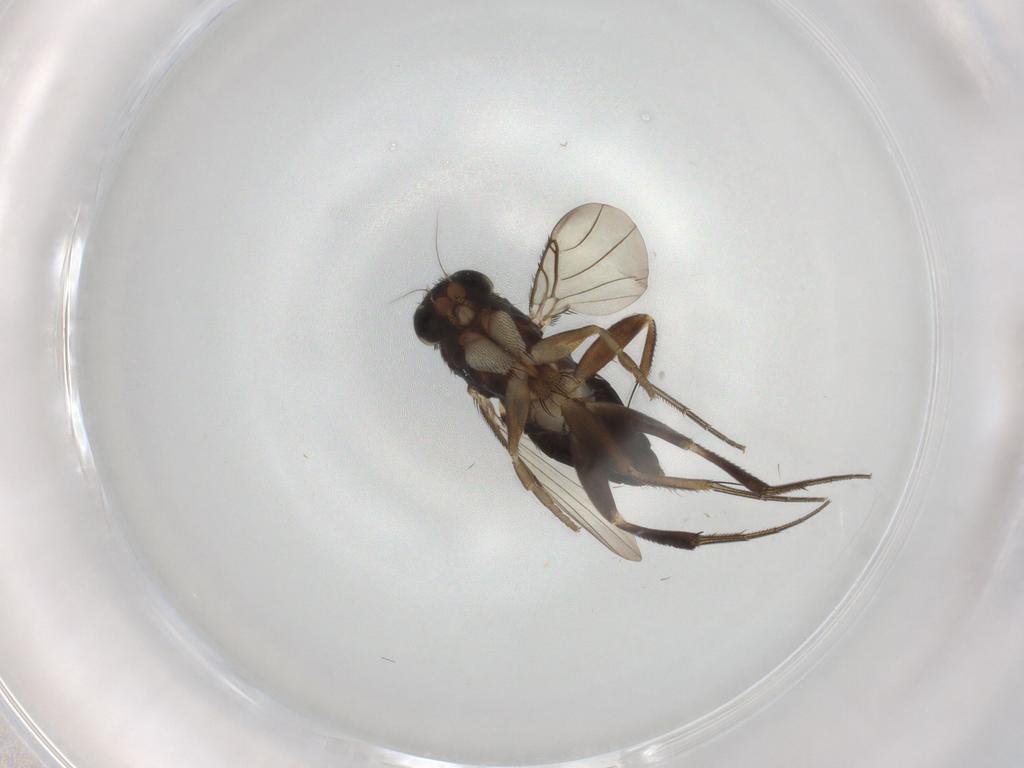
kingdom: Animalia
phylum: Arthropoda
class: Insecta
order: Diptera
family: Phoridae
